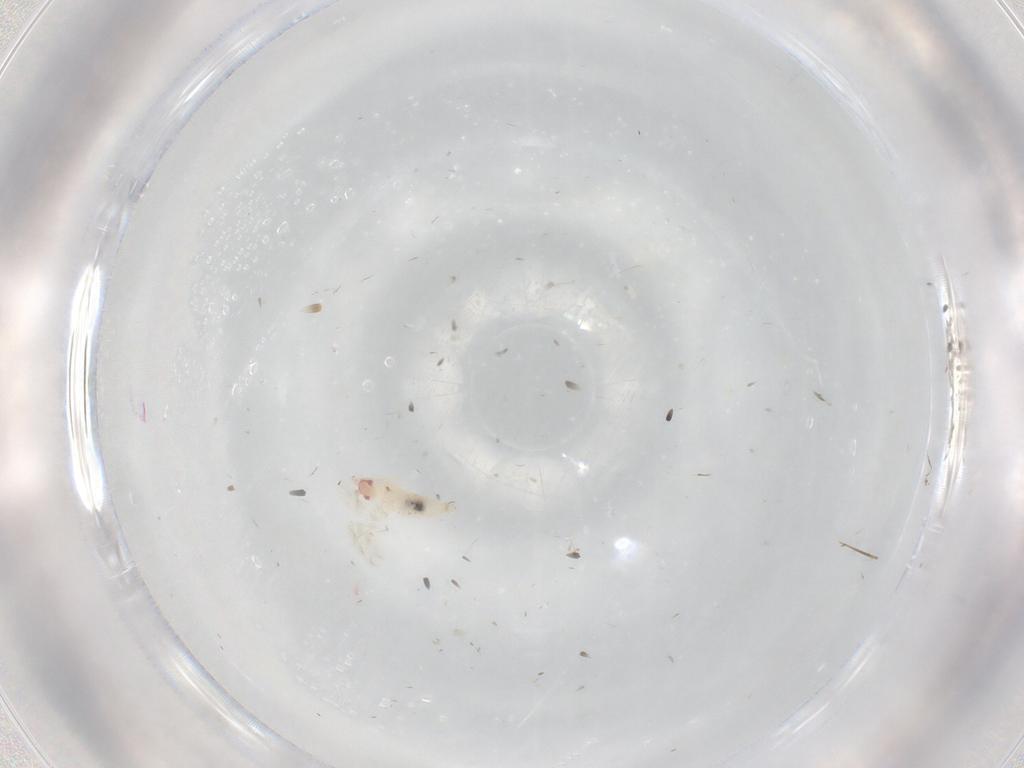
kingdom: Animalia
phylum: Arthropoda
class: Insecta
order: Diptera
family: Cecidomyiidae
